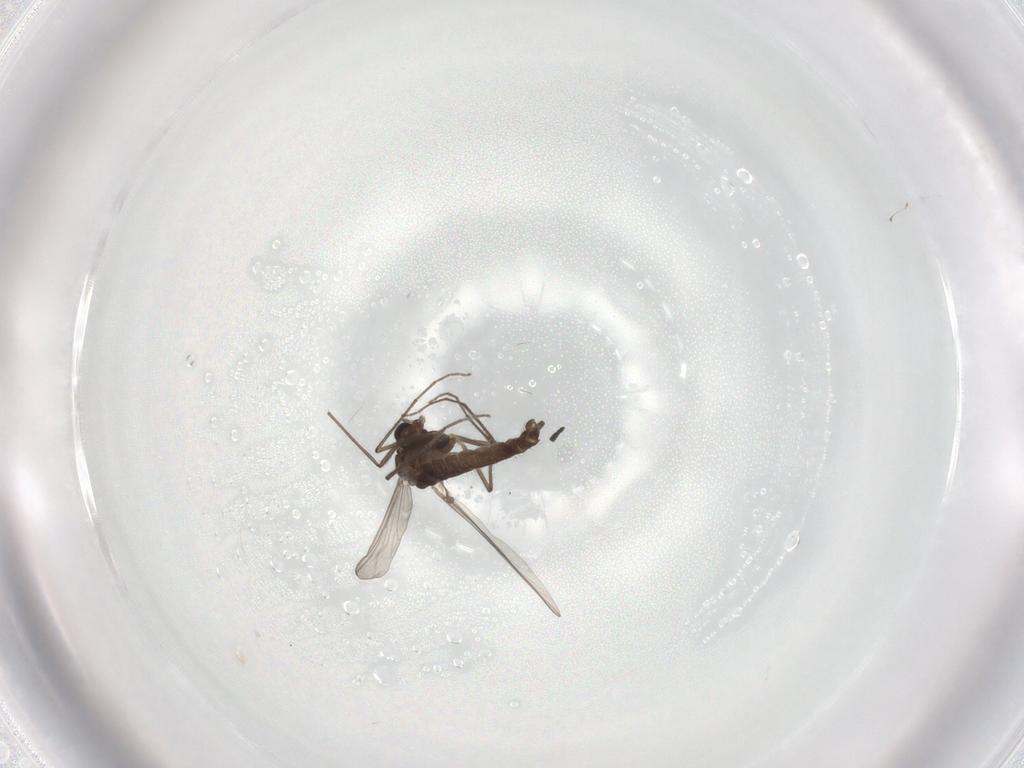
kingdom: Animalia
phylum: Arthropoda
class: Insecta
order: Diptera
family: Chironomidae
